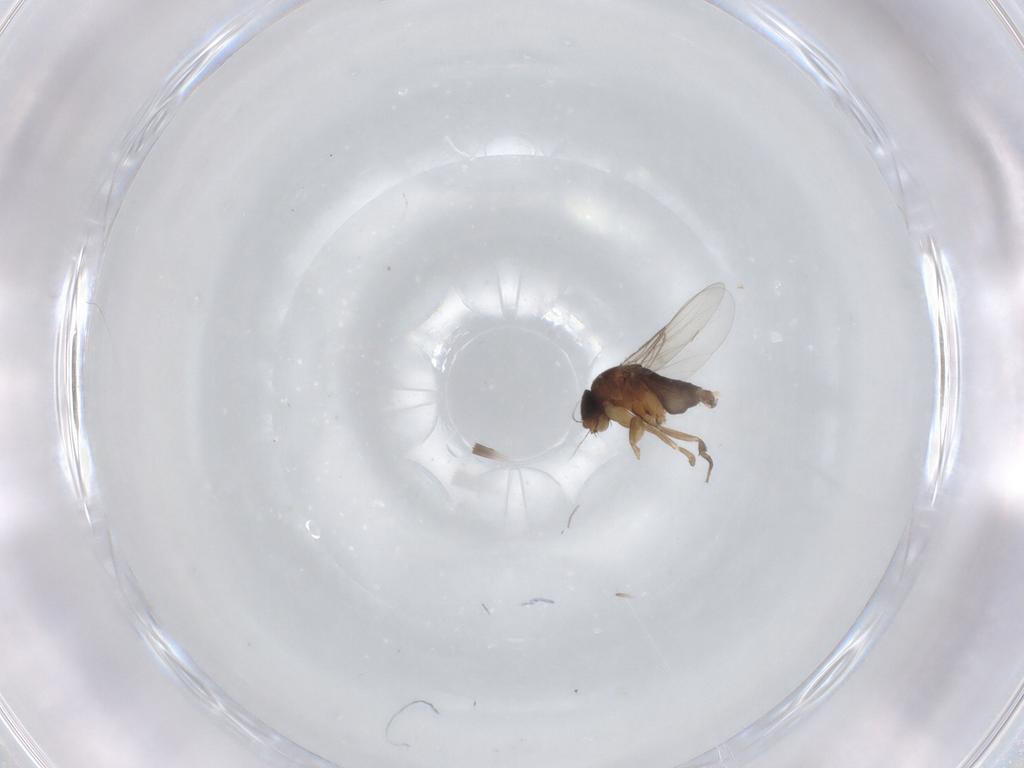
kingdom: Animalia
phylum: Arthropoda
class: Insecta
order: Diptera
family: Phoridae
